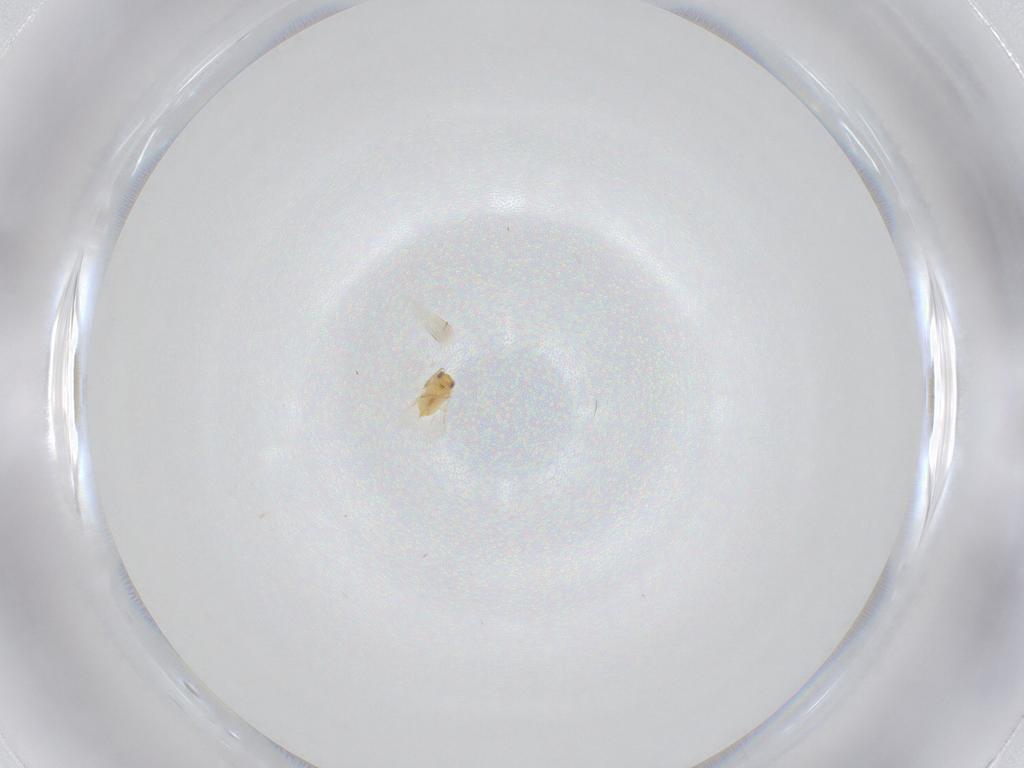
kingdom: Animalia
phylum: Arthropoda
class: Insecta
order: Hymenoptera
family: Aphelinidae
